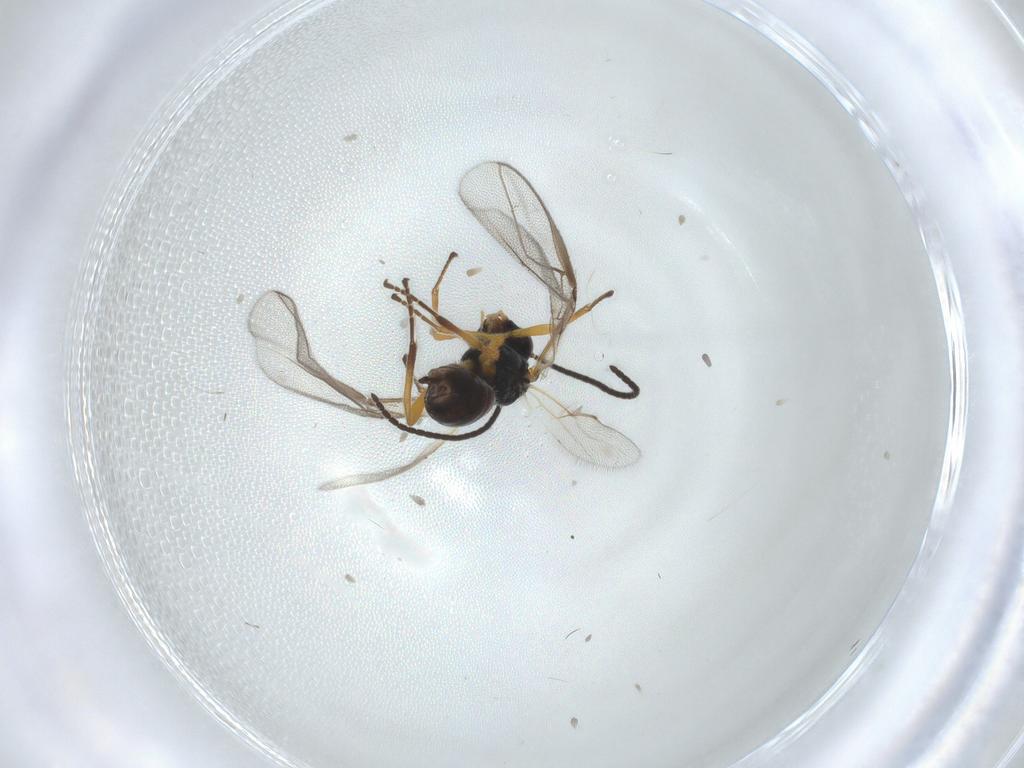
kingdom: Animalia
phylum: Arthropoda
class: Insecta
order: Hymenoptera
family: Braconidae
